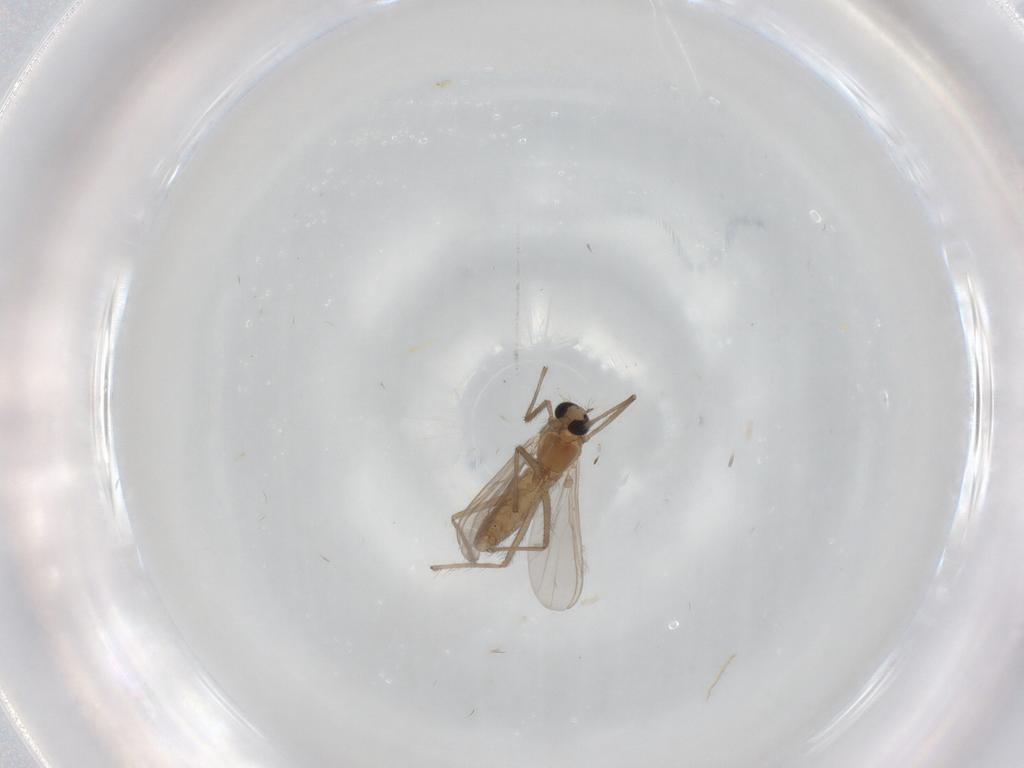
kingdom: Animalia
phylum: Arthropoda
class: Insecta
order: Diptera
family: Chironomidae
